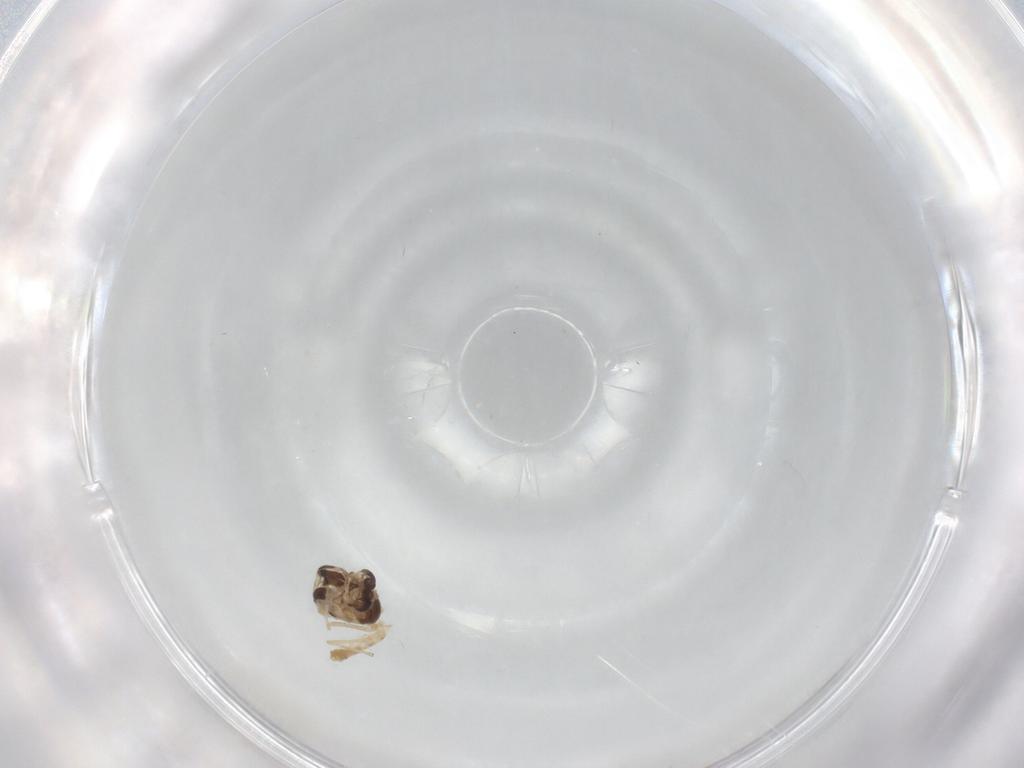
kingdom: Animalia
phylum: Arthropoda
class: Insecta
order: Diptera
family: Chironomidae
